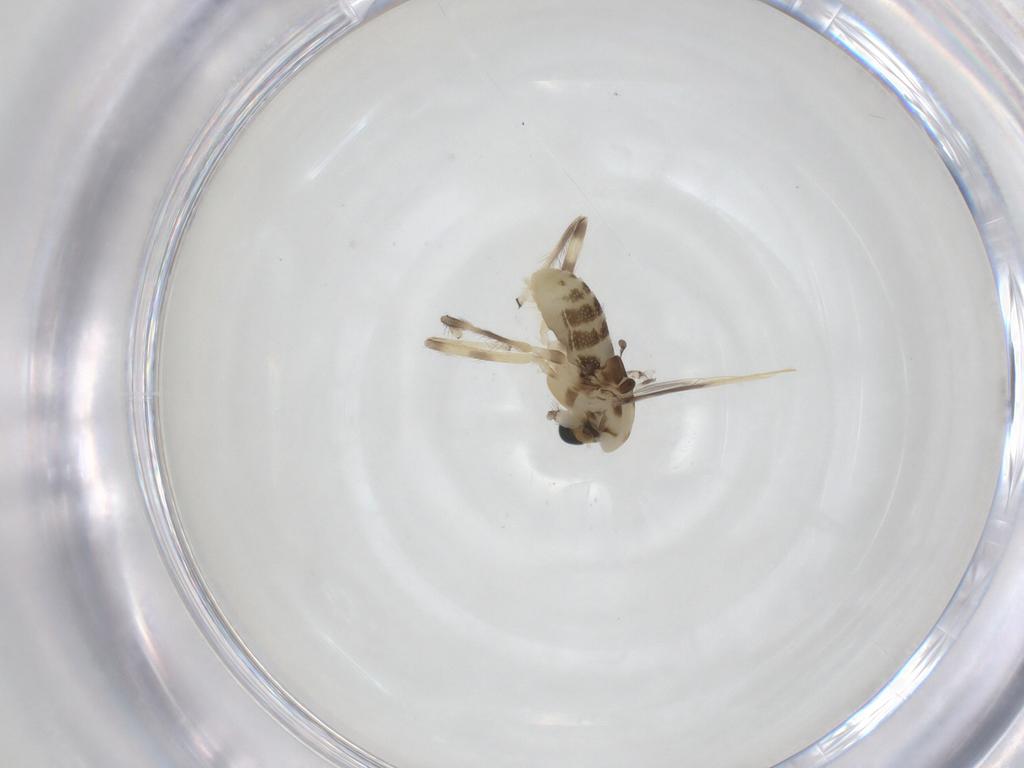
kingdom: Animalia
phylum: Arthropoda
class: Insecta
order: Diptera
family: Chironomidae
